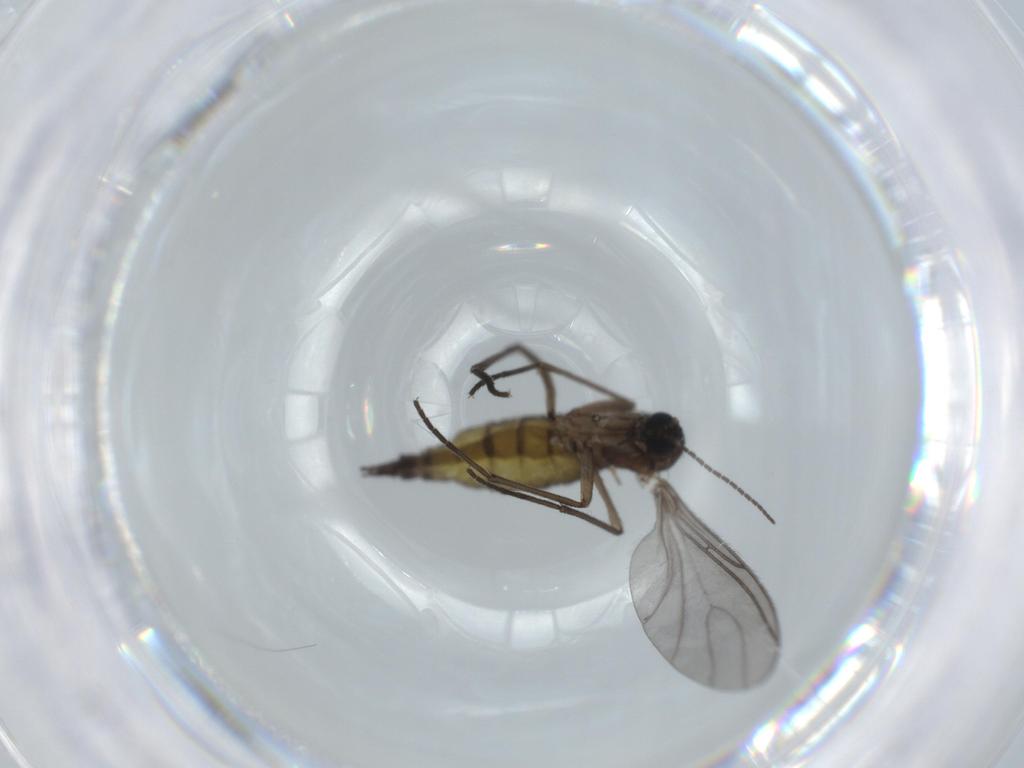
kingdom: Animalia
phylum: Arthropoda
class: Insecta
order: Diptera
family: Sciaridae
